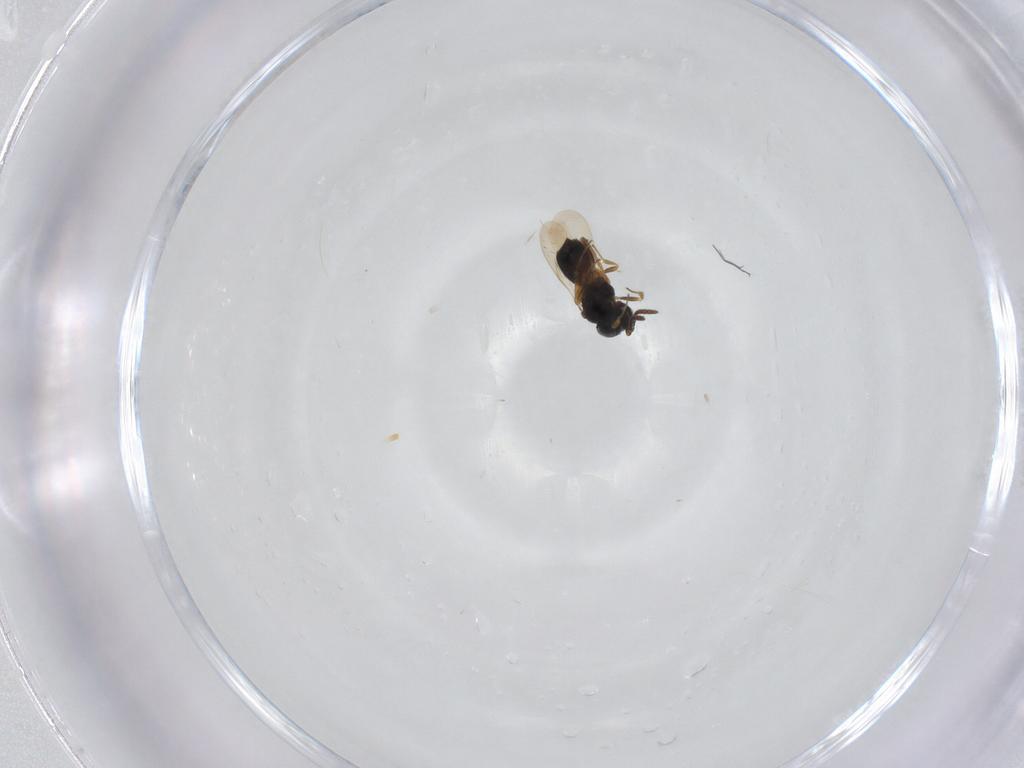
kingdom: Animalia
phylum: Arthropoda
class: Insecta
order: Hymenoptera
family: Scelionidae
